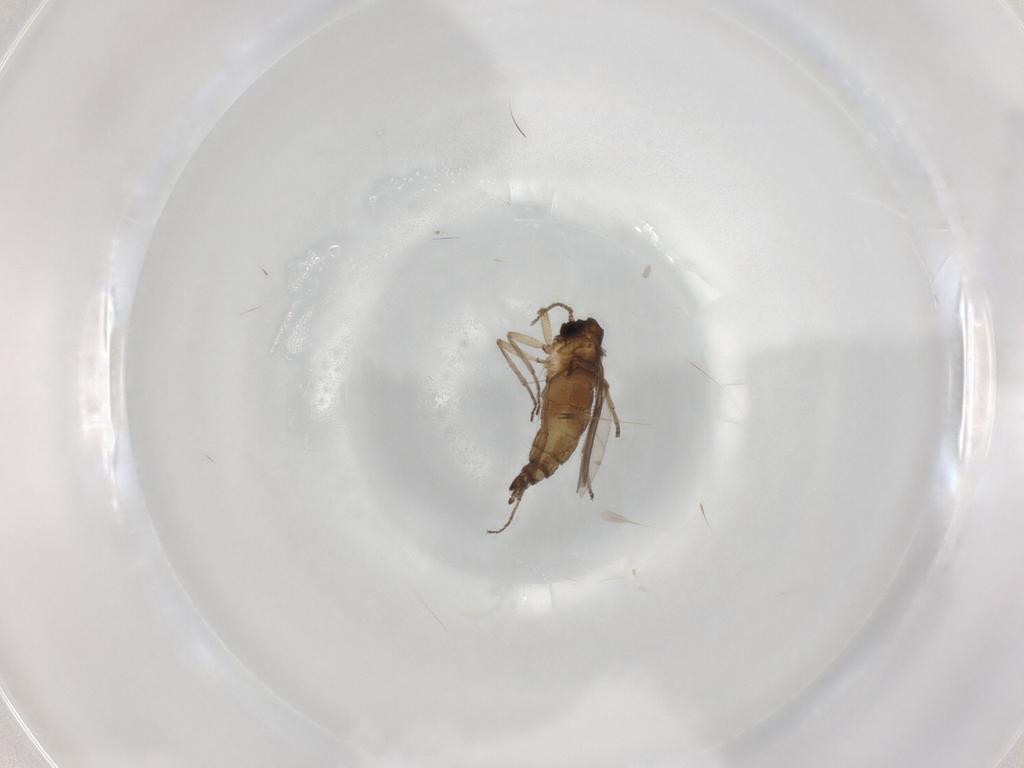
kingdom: Animalia
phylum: Arthropoda
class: Insecta
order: Diptera
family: Sciaridae
